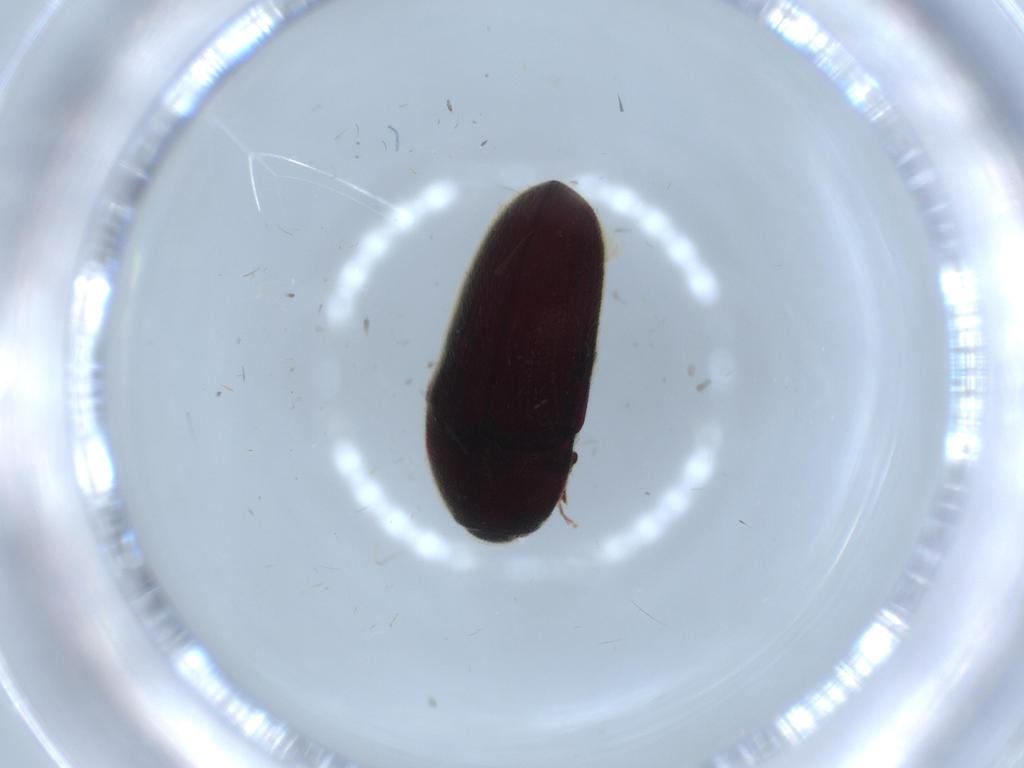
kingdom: Animalia
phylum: Arthropoda
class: Insecta
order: Coleoptera
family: Throscidae
